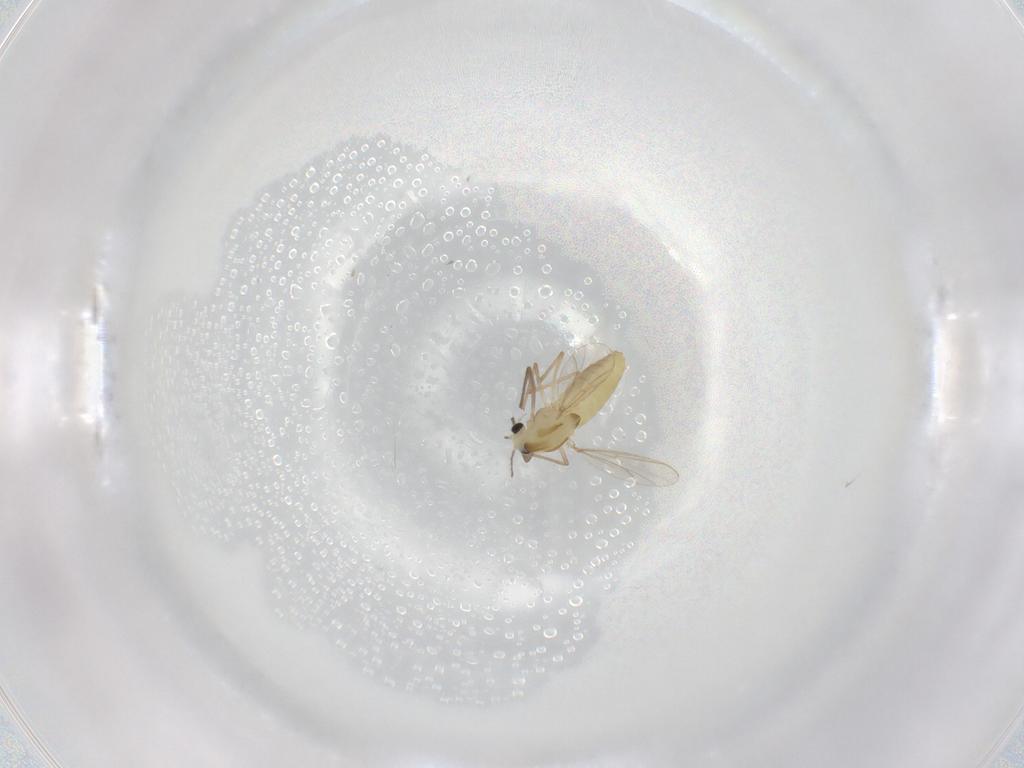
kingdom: Animalia
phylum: Arthropoda
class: Insecta
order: Diptera
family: Chironomidae
